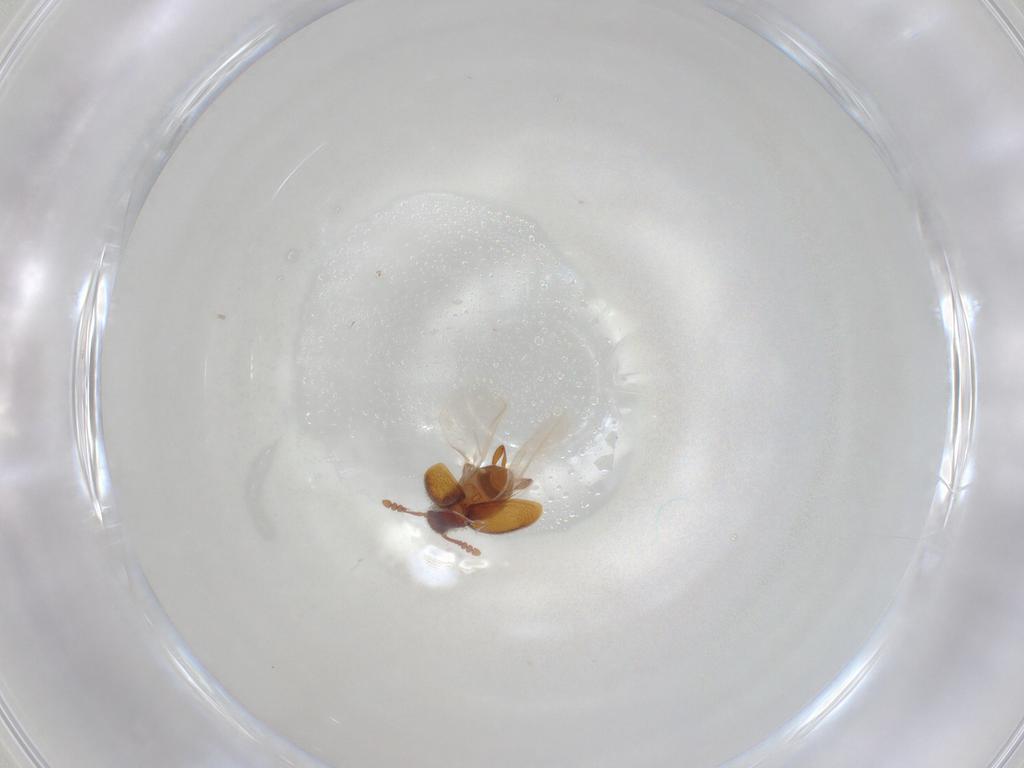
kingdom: Animalia
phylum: Arthropoda
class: Insecta
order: Coleoptera
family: Staphylinidae
